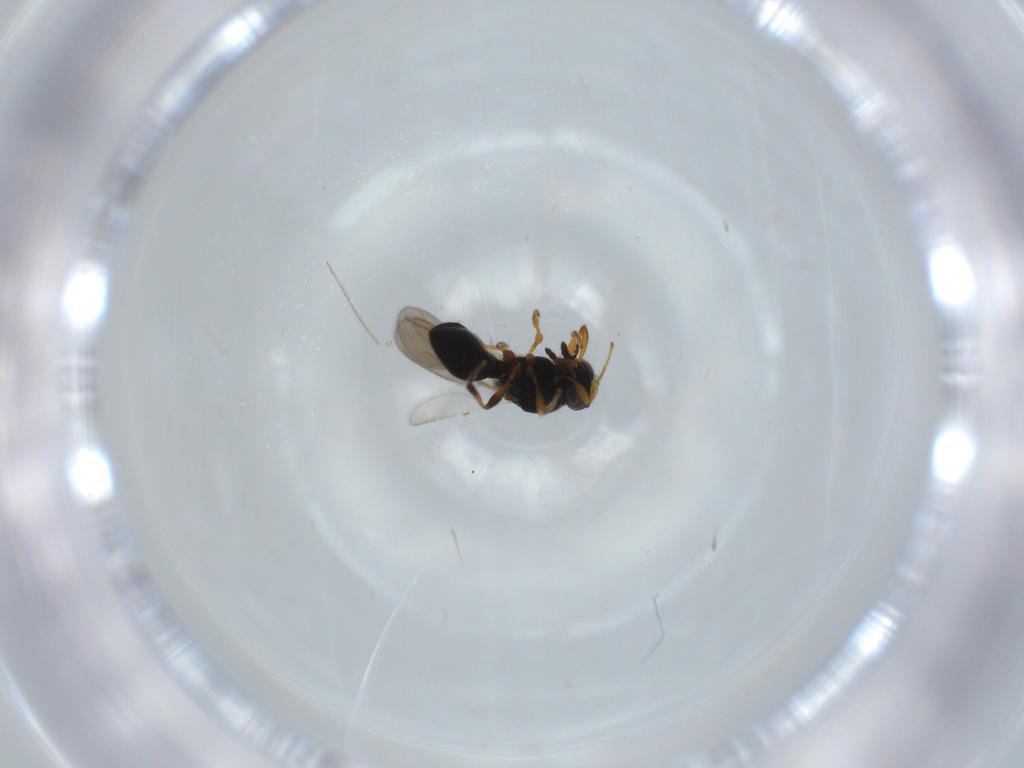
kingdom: Animalia
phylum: Arthropoda
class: Insecta
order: Hymenoptera
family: Platygastridae
